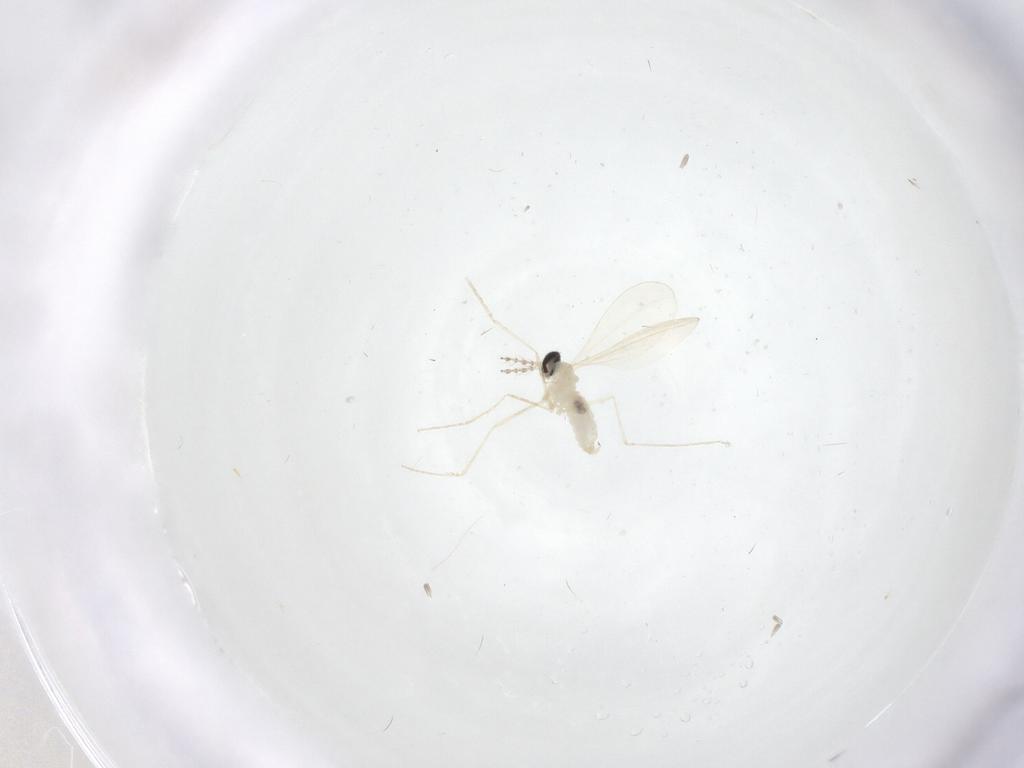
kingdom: Animalia
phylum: Arthropoda
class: Insecta
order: Diptera
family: Cecidomyiidae
